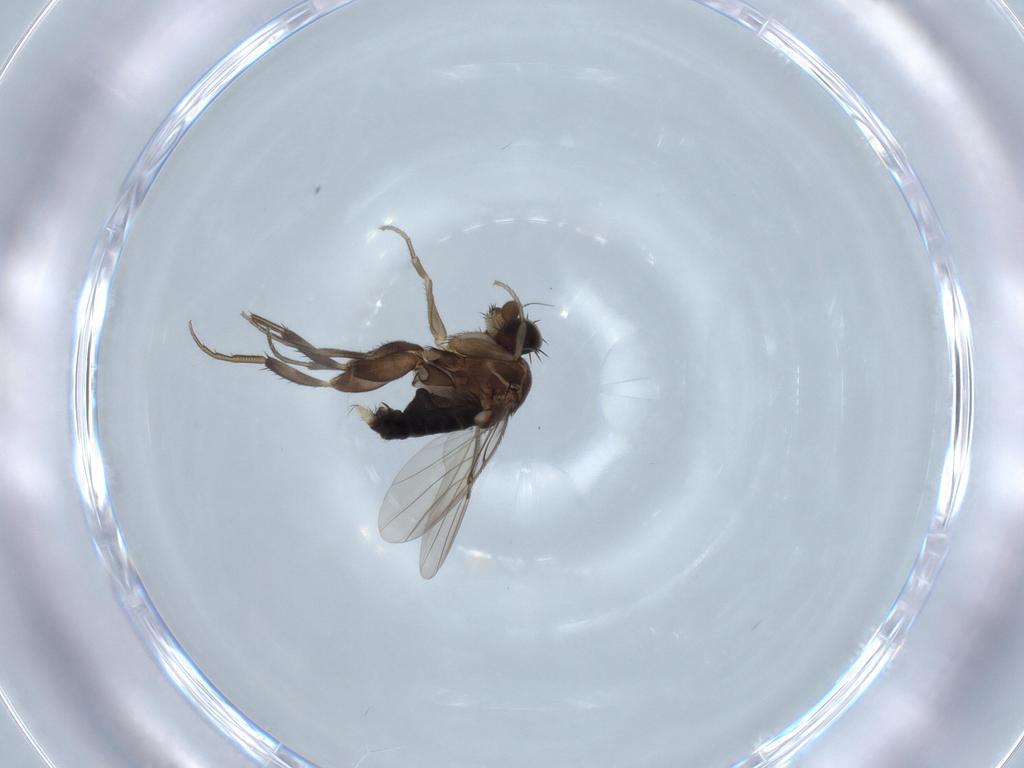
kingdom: Animalia
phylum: Arthropoda
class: Insecta
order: Diptera
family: Phoridae
